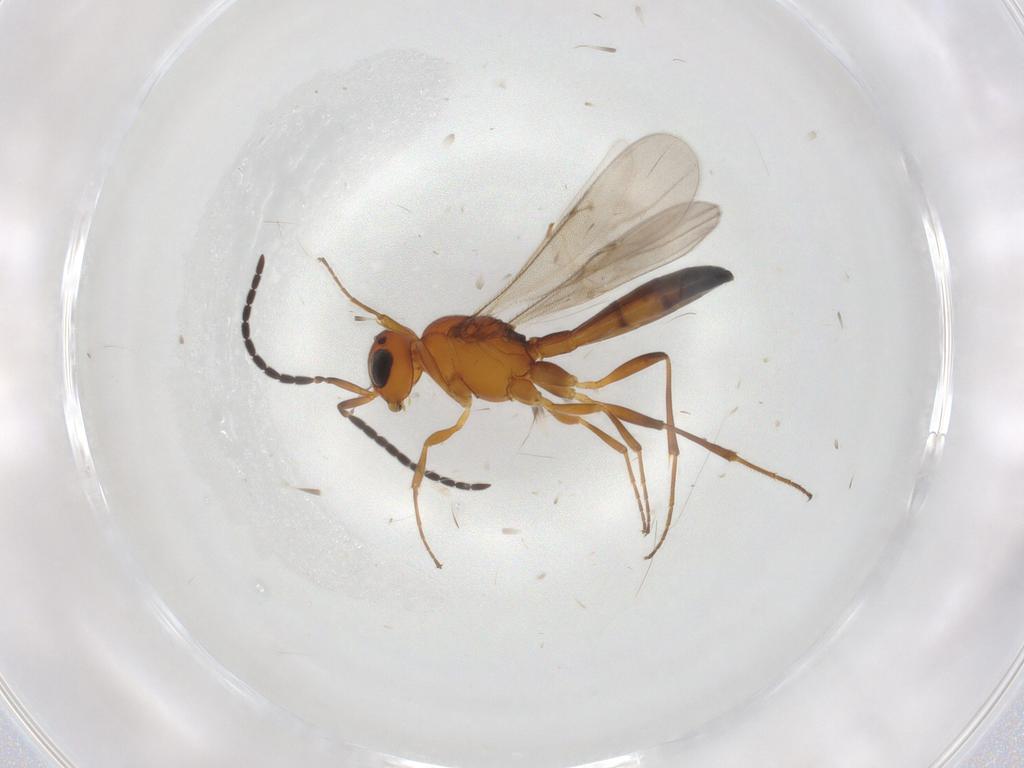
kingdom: Animalia
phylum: Arthropoda
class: Insecta
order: Hymenoptera
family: Scelionidae
